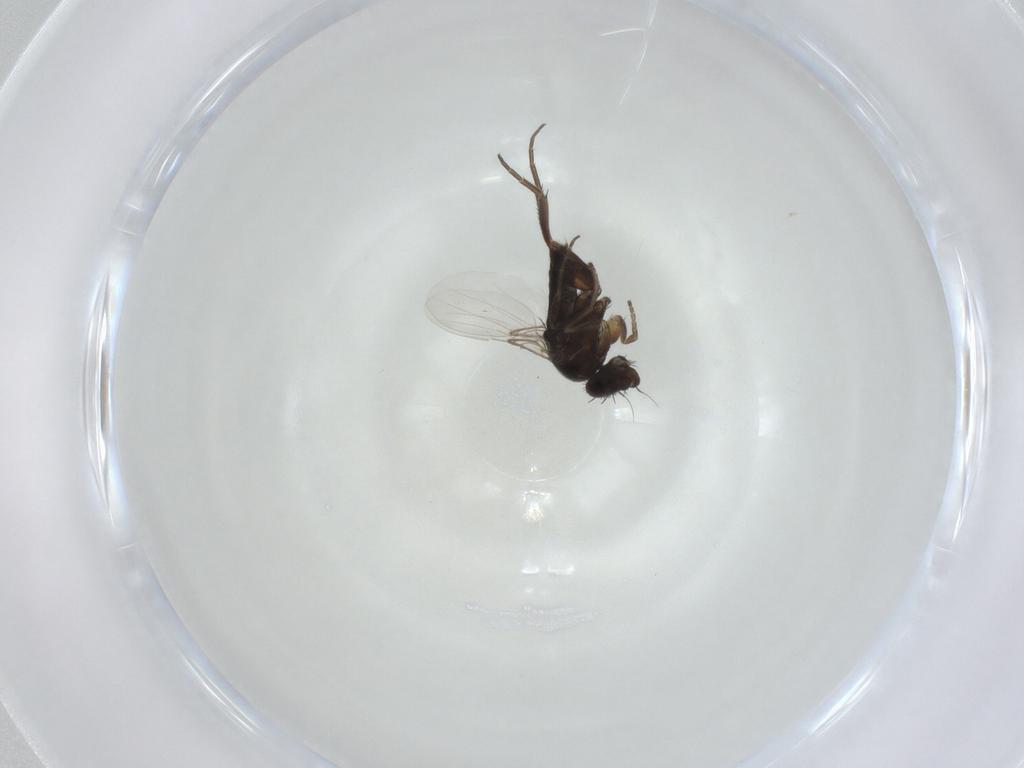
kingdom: Animalia
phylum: Arthropoda
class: Insecta
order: Diptera
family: Phoridae
